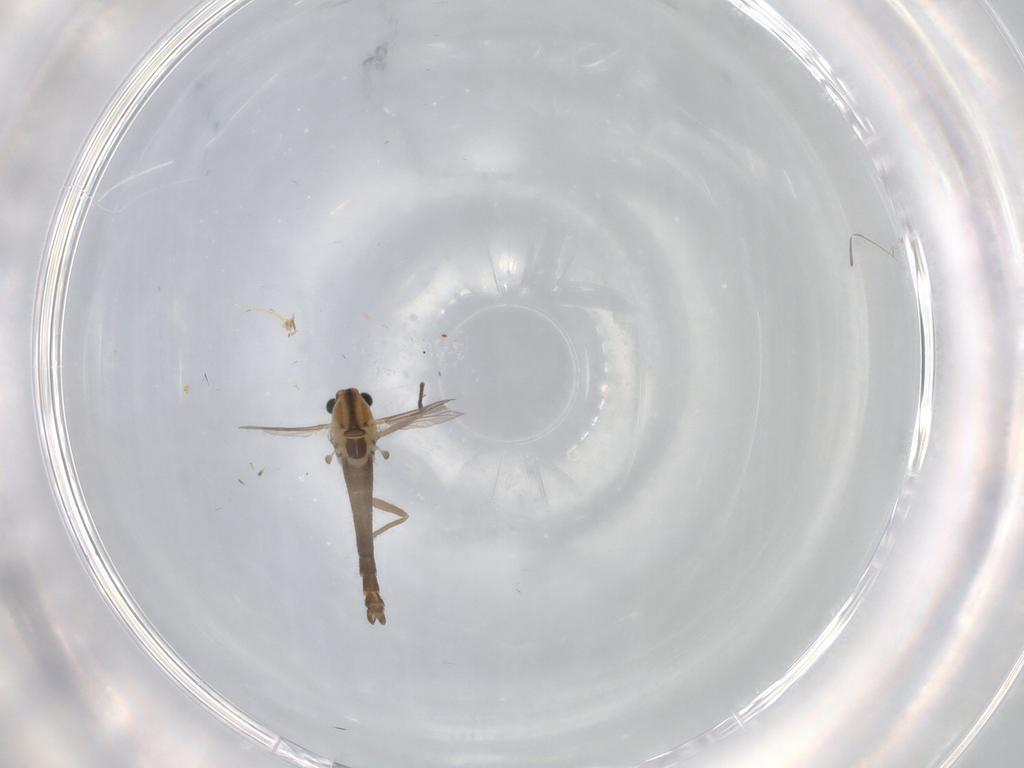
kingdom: Animalia
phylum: Arthropoda
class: Insecta
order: Diptera
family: Chironomidae
